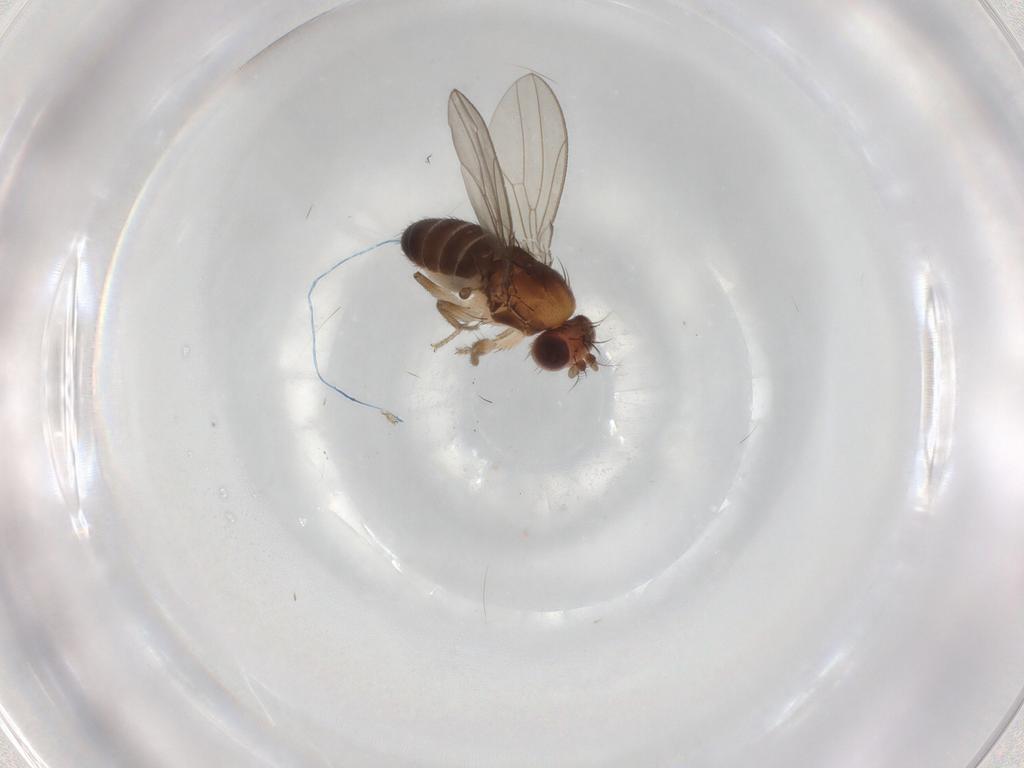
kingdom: Animalia
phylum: Arthropoda
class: Insecta
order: Diptera
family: Drosophilidae
